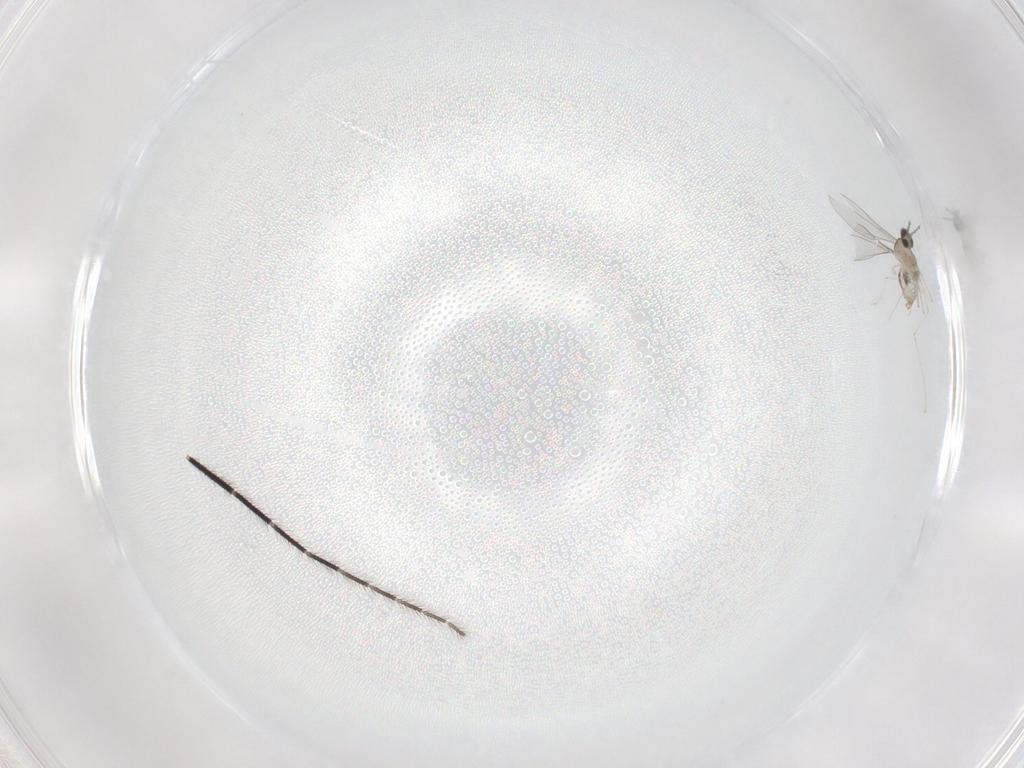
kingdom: Animalia
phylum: Arthropoda
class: Insecta
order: Diptera
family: Ceratopogonidae
